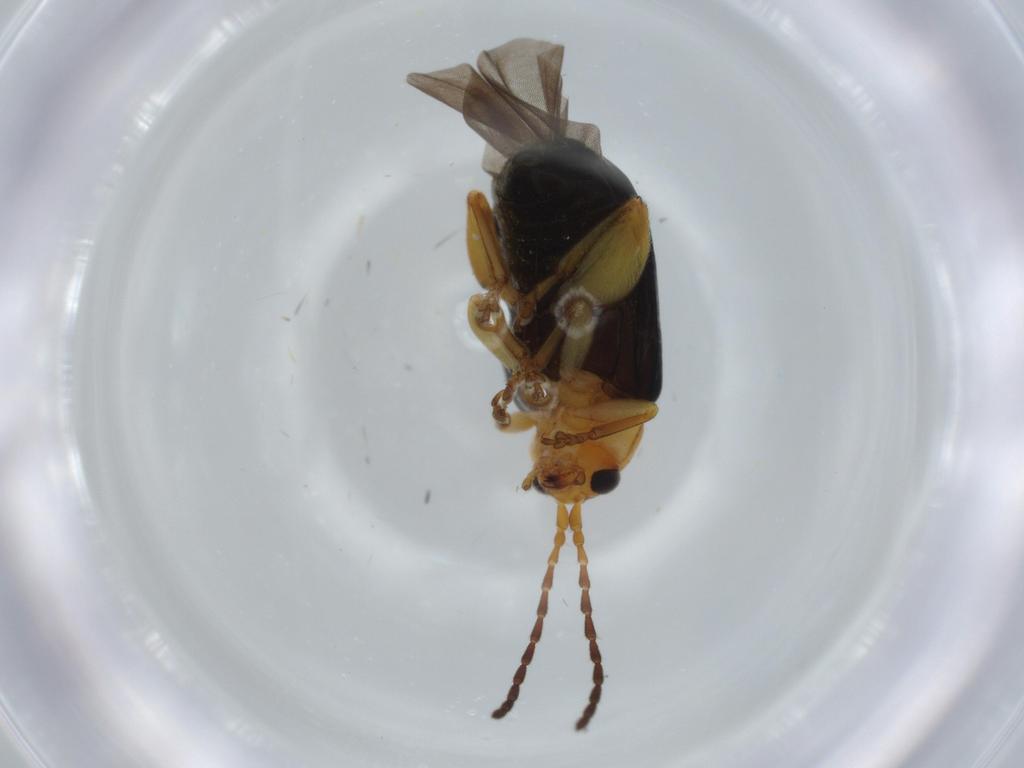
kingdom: Animalia
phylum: Arthropoda
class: Insecta
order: Coleoptera
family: Chrysomelidae
